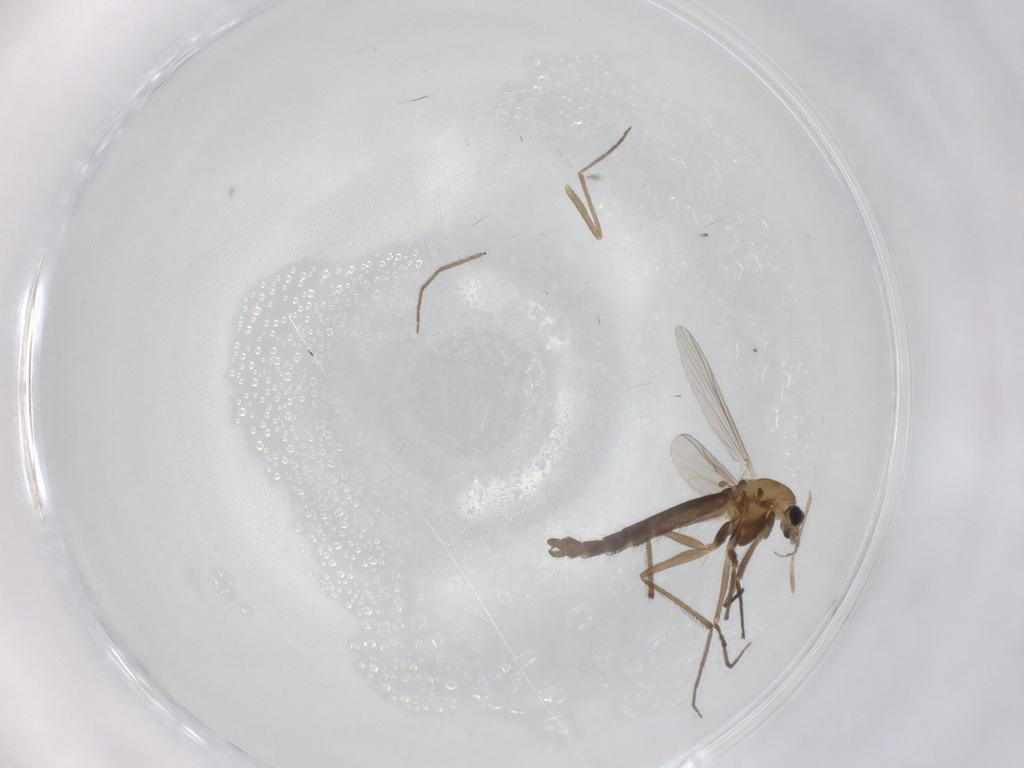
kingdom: Animalia
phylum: Arthropoda
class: Insecta
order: Diptera
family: Chironomidae
